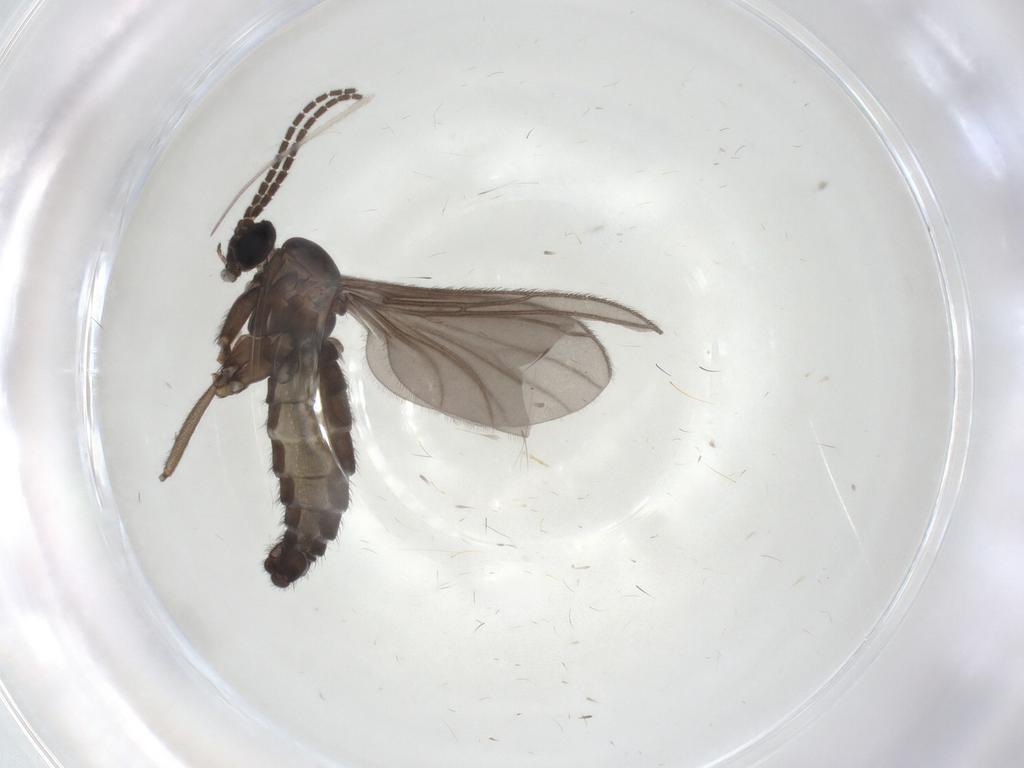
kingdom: Animalia
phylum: Arthropoda
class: Insecta
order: Diptera
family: Sciaridae
